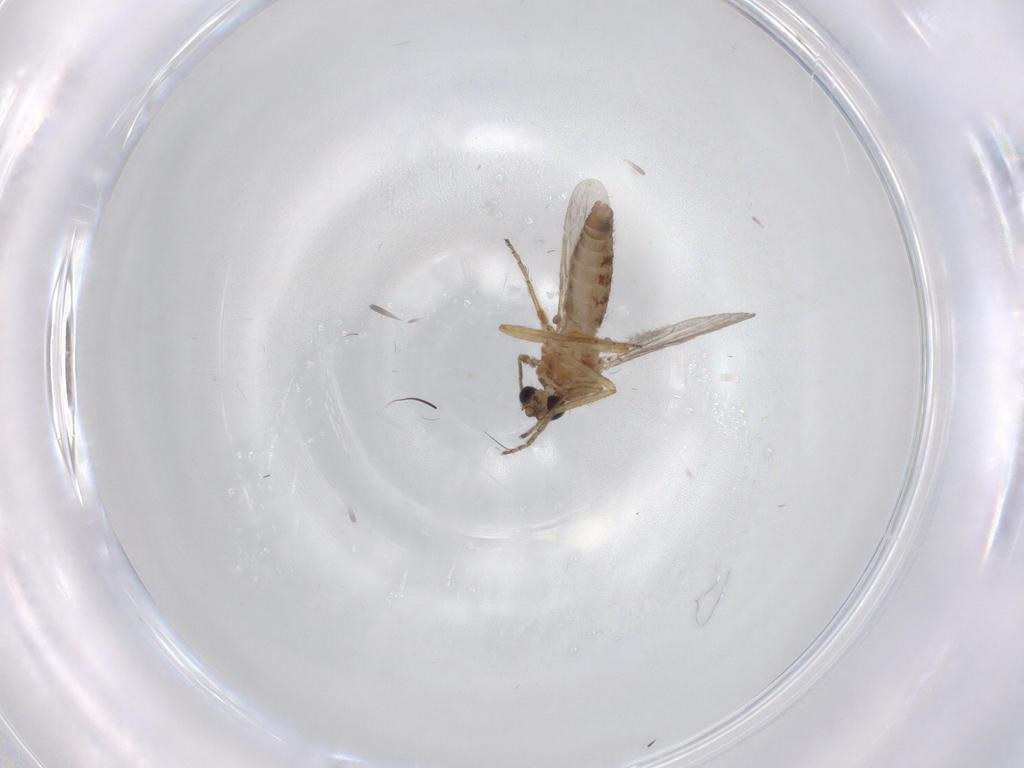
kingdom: Animalia
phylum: Arthropoda
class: Insecta
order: Diptera
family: Ceratopogonidae
